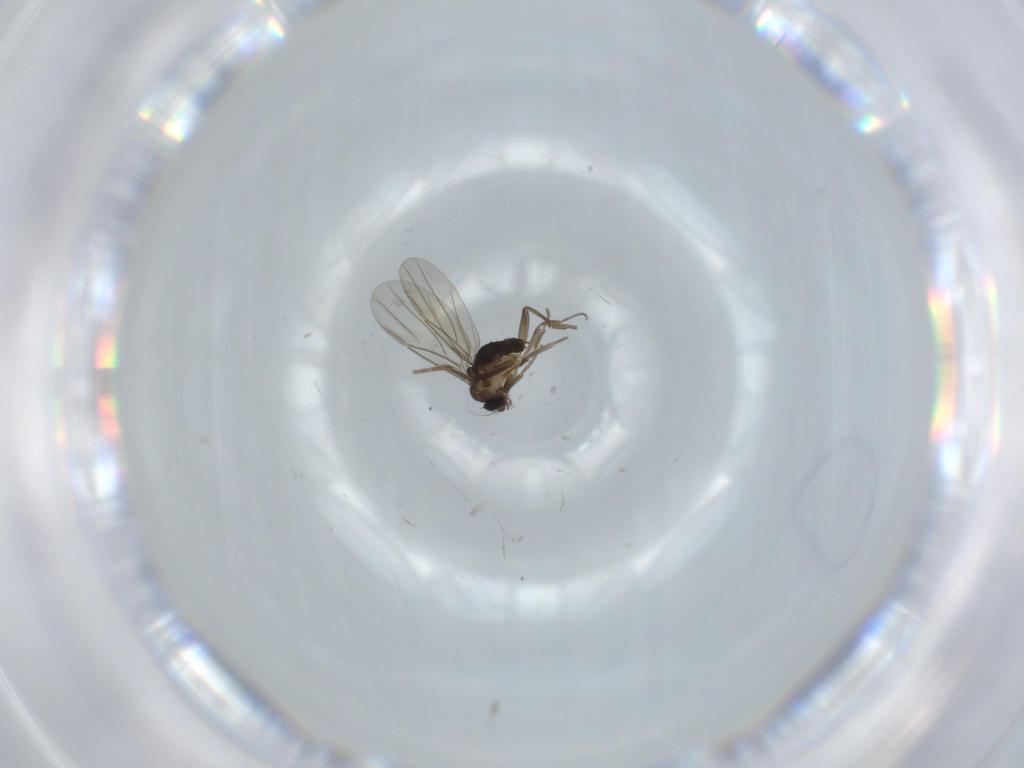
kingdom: Animalia
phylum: Arthropoda
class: Insecta
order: Diptera
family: Phoridae
